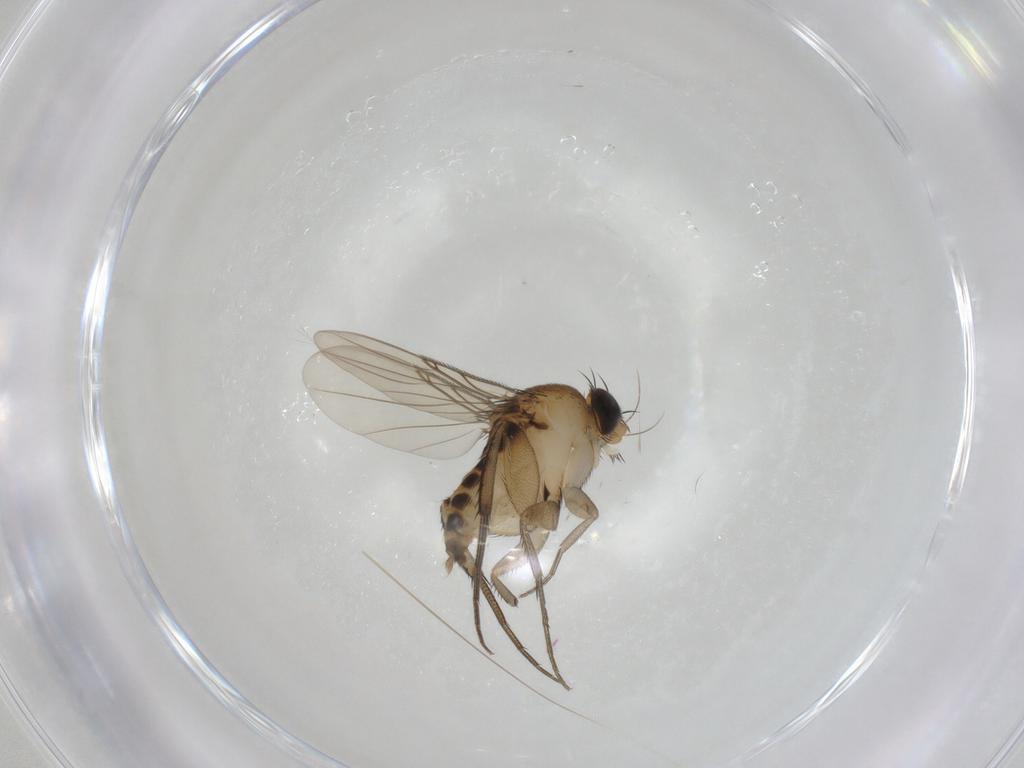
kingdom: Animalia
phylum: Arthropoda
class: Insecta
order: Diptera
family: Phoridae
